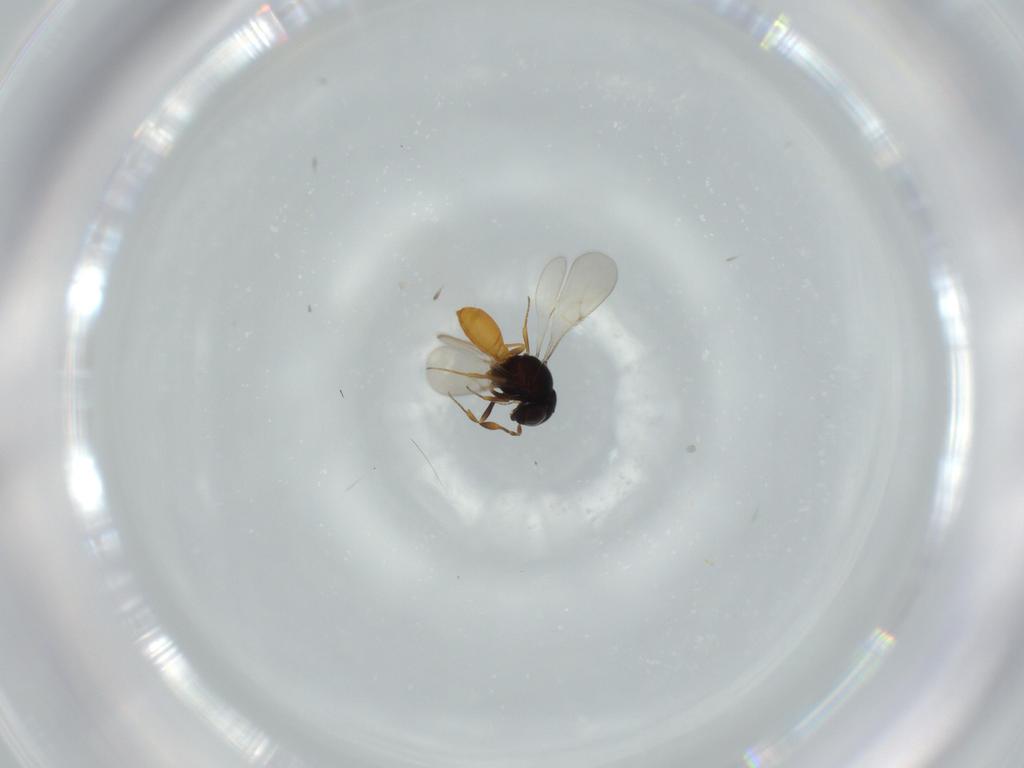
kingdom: Animalia
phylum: Arthropoda
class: Insecta
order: Hymenoptera
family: Scelionidae
